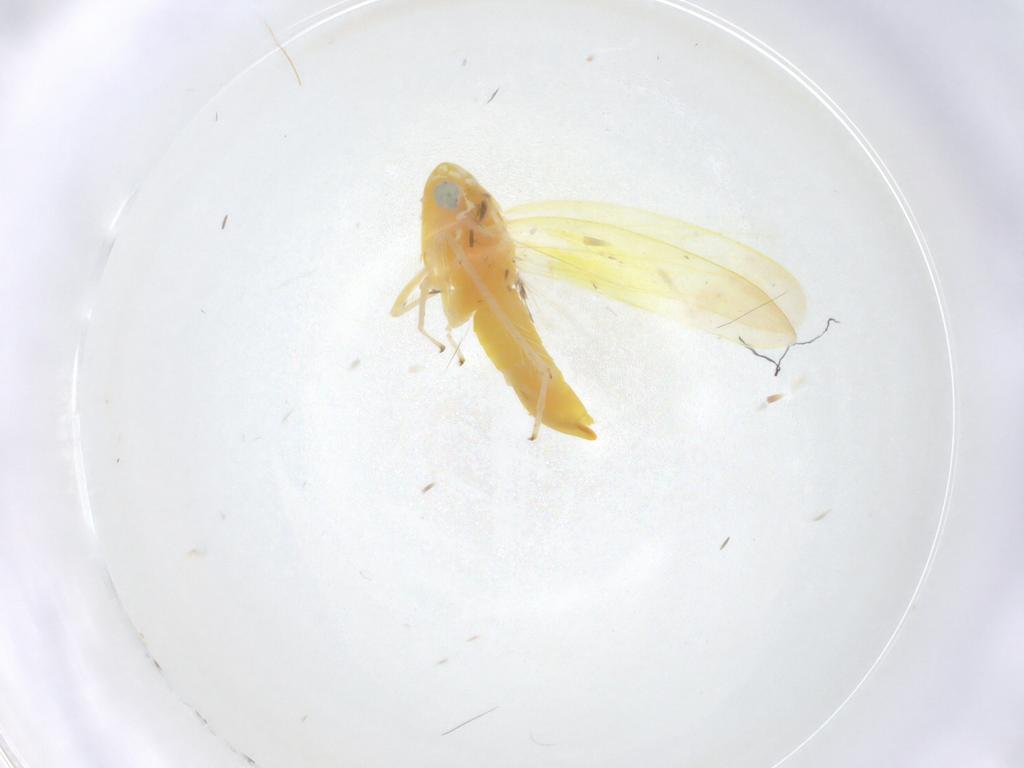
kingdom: Animalia
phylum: Arthropoda
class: Insecta
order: Hemiptera
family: Cicadellidae
